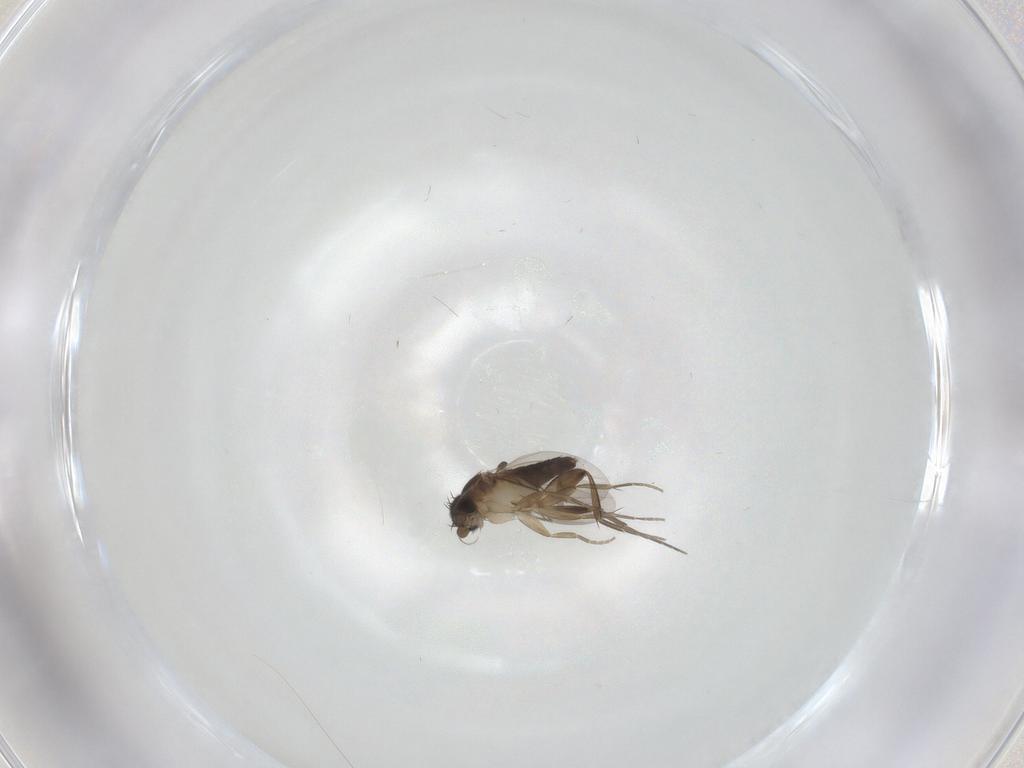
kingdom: Animalia
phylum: Arthropoda
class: Insecta
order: Diptera
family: Phoridae
